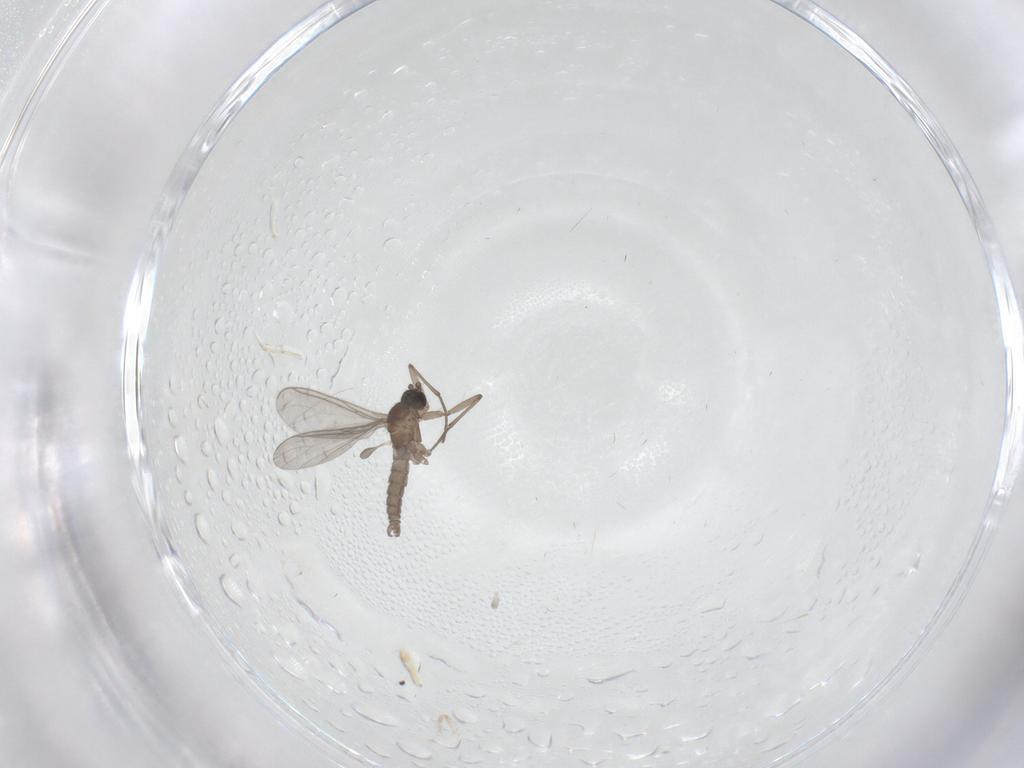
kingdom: Animalia
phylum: Arthropoda
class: Insecta
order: Diptera
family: Sciaridae
